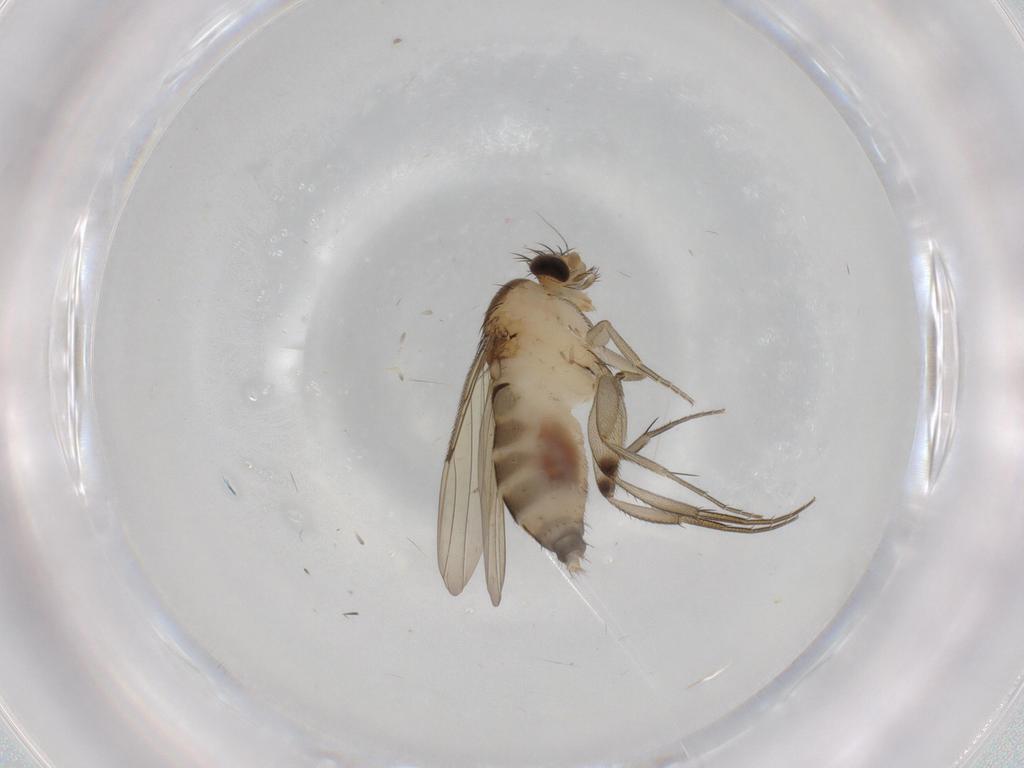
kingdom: Animalia
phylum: Arthropoda
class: Insecta
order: Diptera
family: Phoridae
